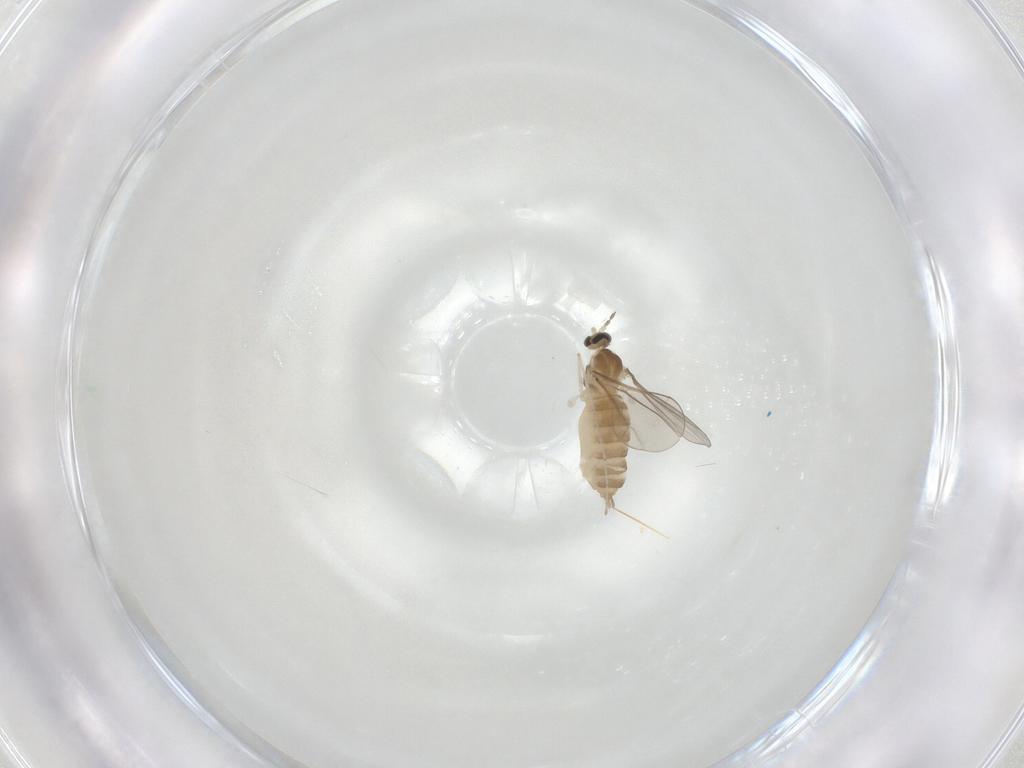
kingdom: Animalia
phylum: Arthropoda
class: Insecta
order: Diptera
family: Cecidomyiidae
